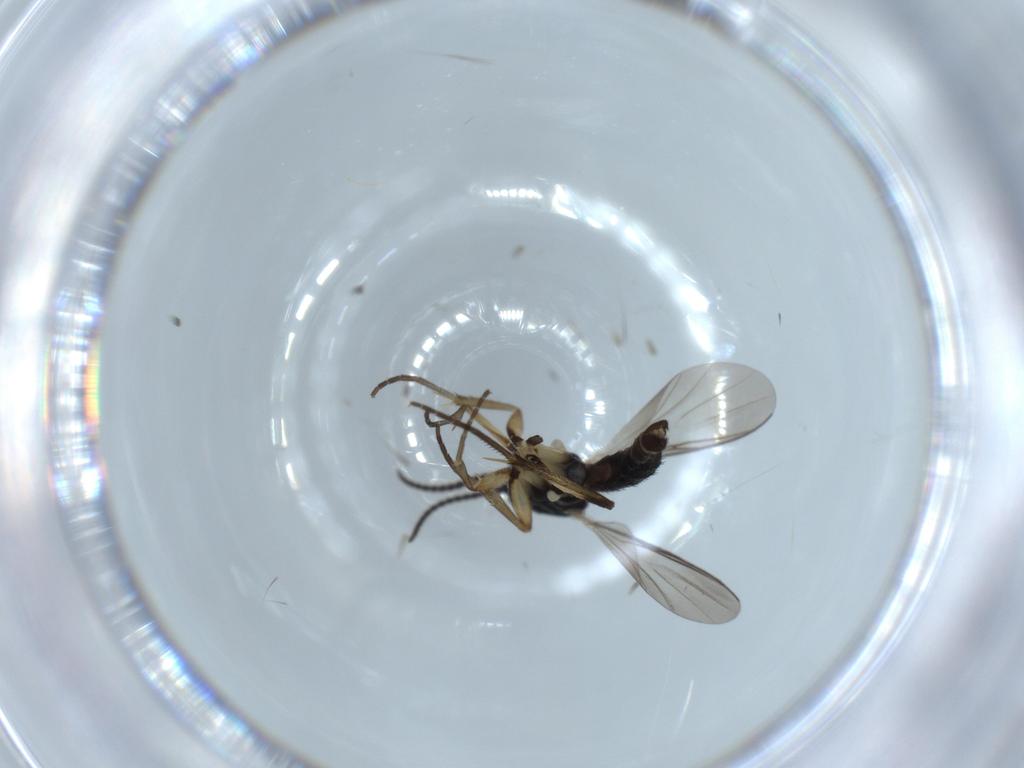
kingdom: Animalia
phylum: Arthropoda
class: Insecta
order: Diptera
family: Mycetophilidae
